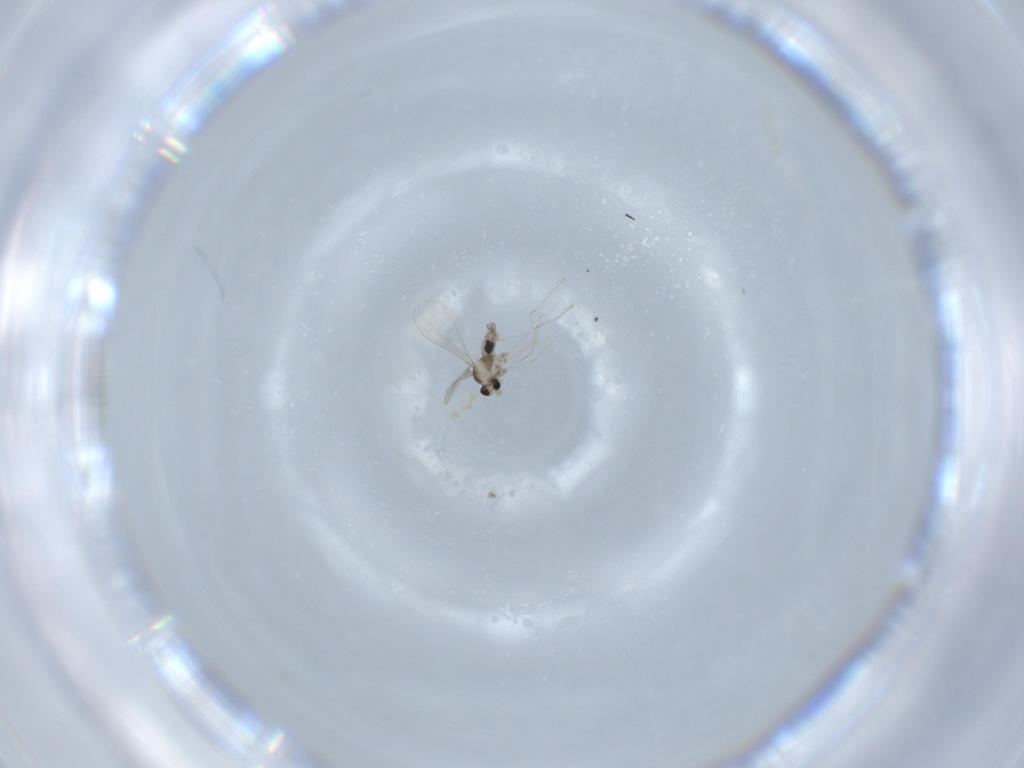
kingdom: Animalia
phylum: Arthropoda
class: Insecta
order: Diptera
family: Cecidomyiidae
